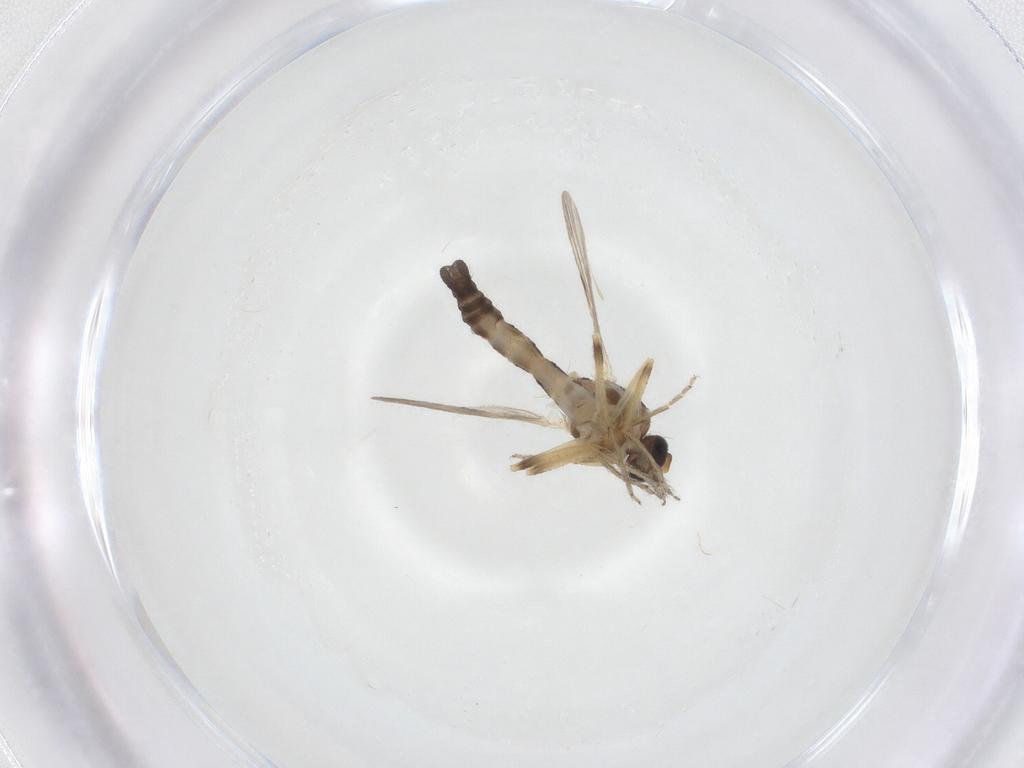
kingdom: Animalia
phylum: Arthropoda
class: Insecta
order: Diptera
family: Ceratopogonidae
